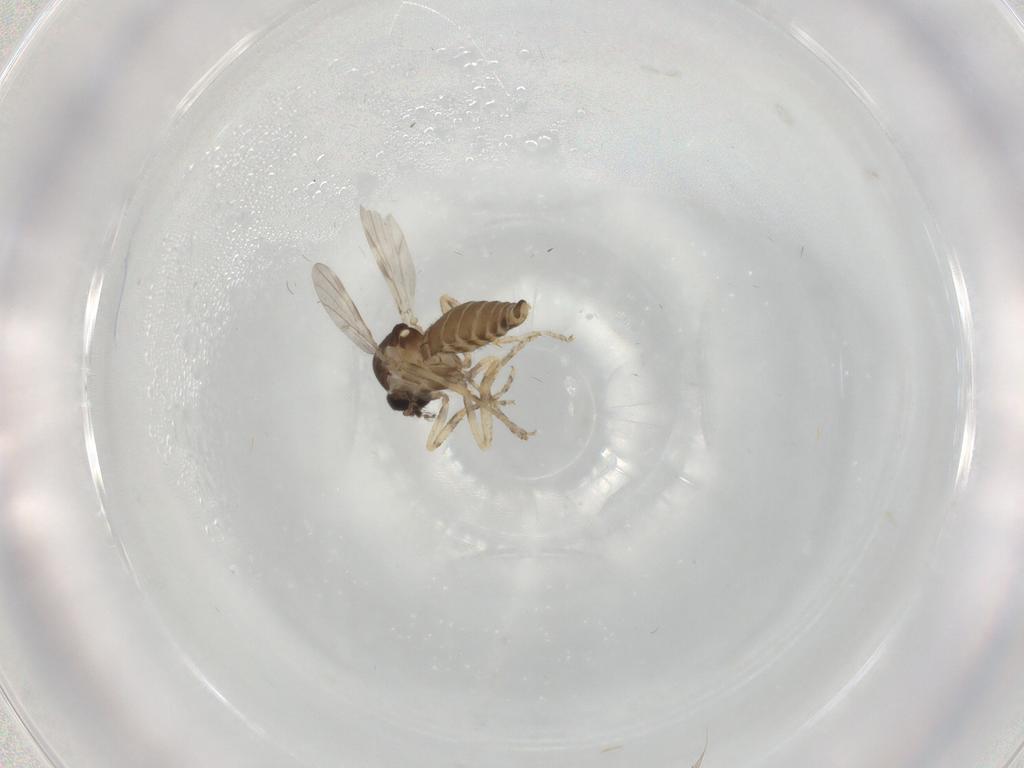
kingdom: Animalia
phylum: Arthropoda
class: Insecta
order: Diptera
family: Ceratopogonidae
